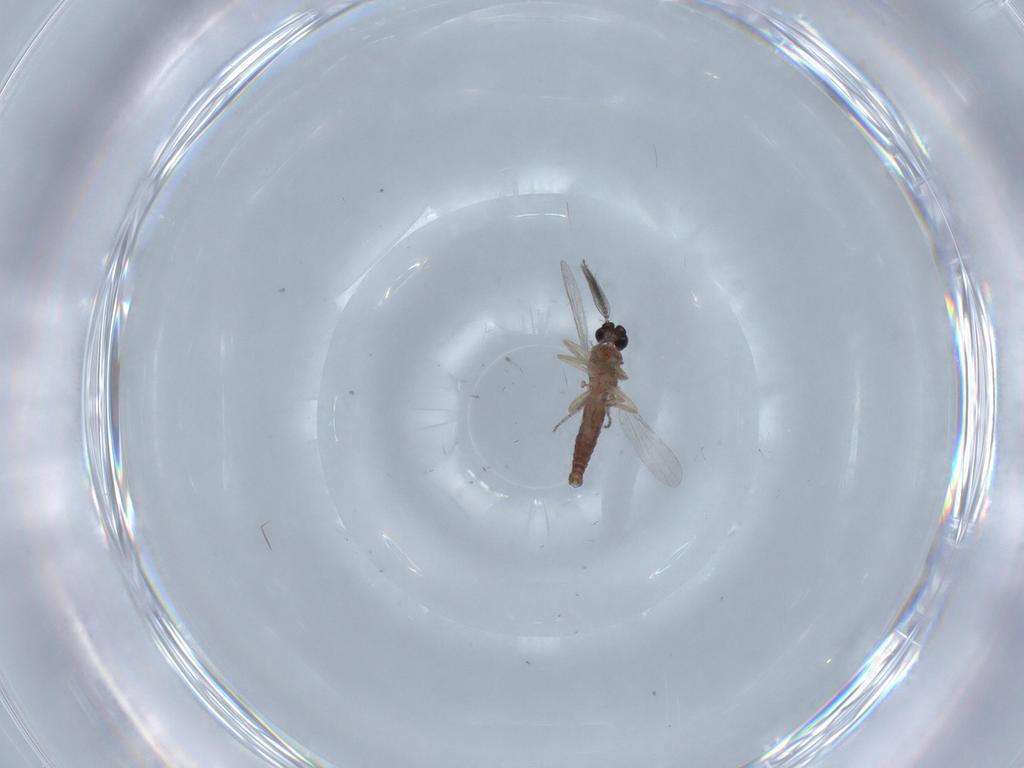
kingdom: Animalia
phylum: Arthropoda
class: Insecta
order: Diptera
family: Ceratopogonidae
